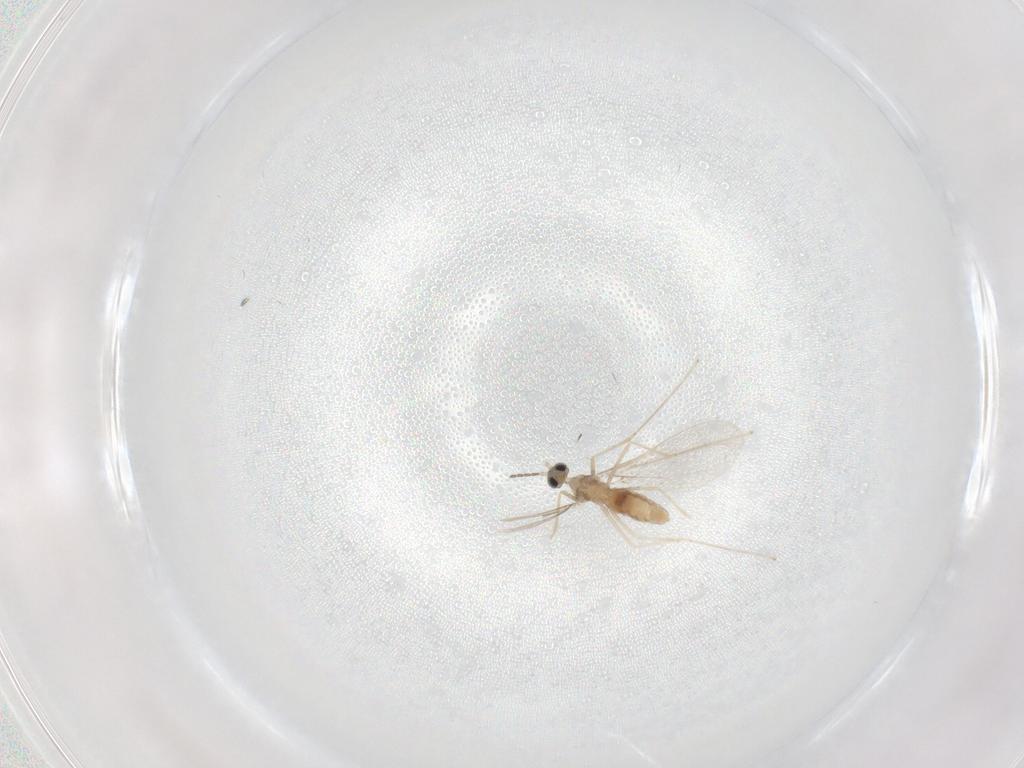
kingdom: Animalia
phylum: Arthropoda
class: Insecta
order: Diptera
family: Cecidomyiidae
